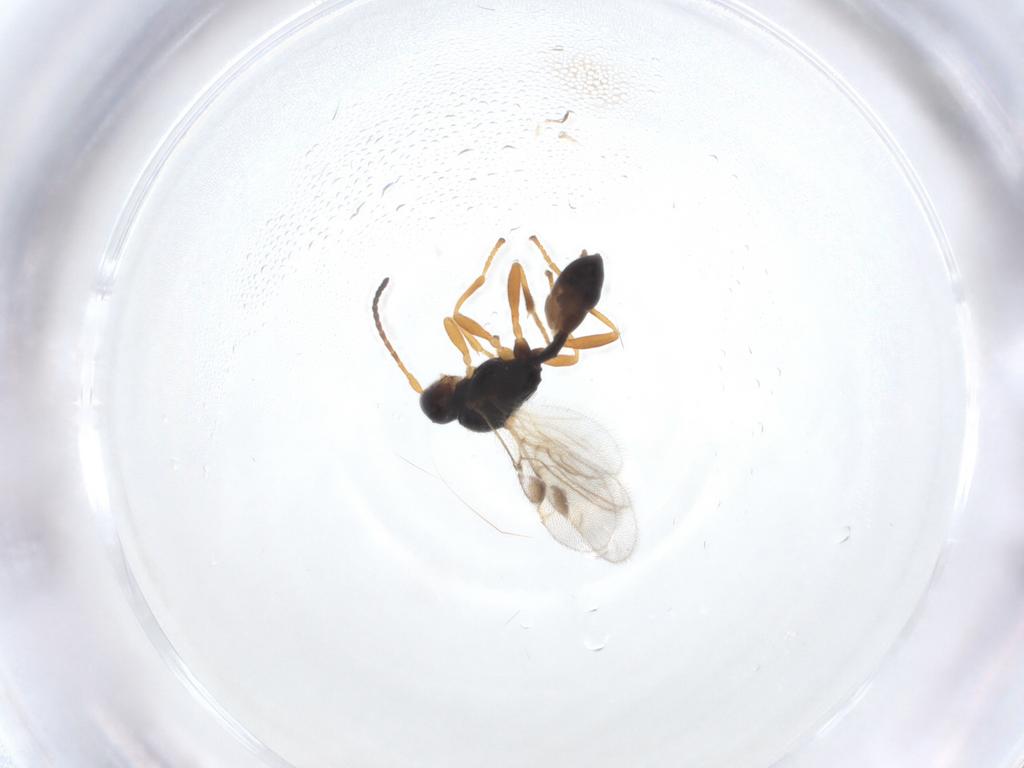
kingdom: Animalia
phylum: Arthropoda
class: Insecta
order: Hymenoptera
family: Braconidae
